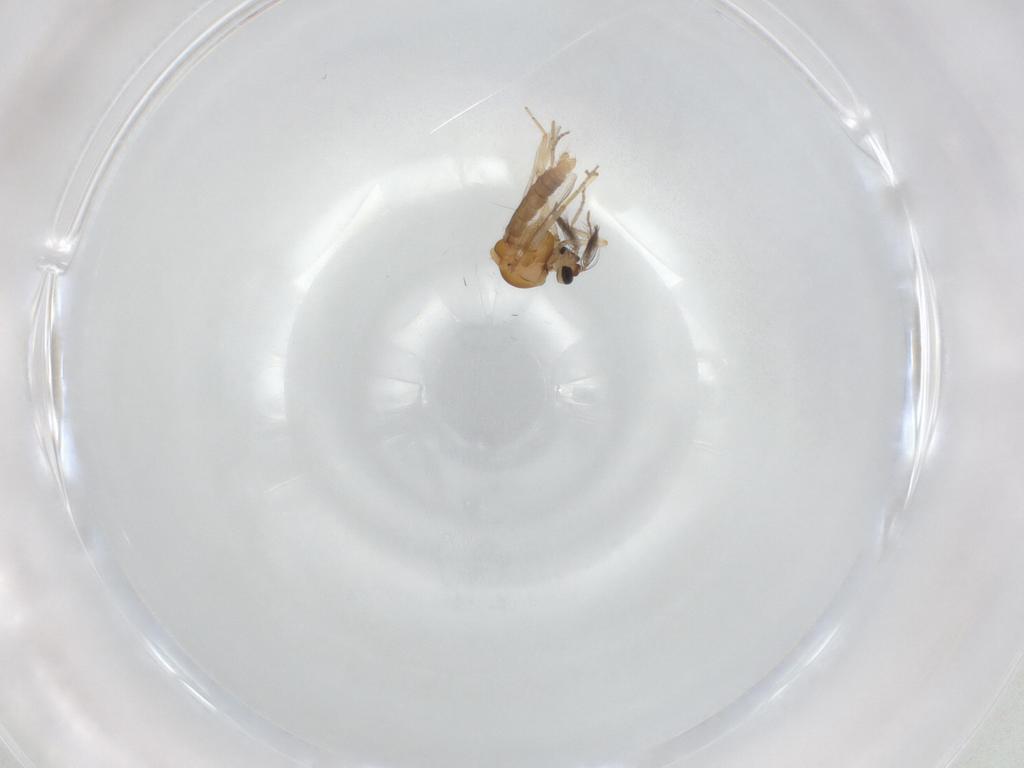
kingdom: Animalia
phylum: Arthropoda
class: Insecta
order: Diptera
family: Ceratopogonidae
